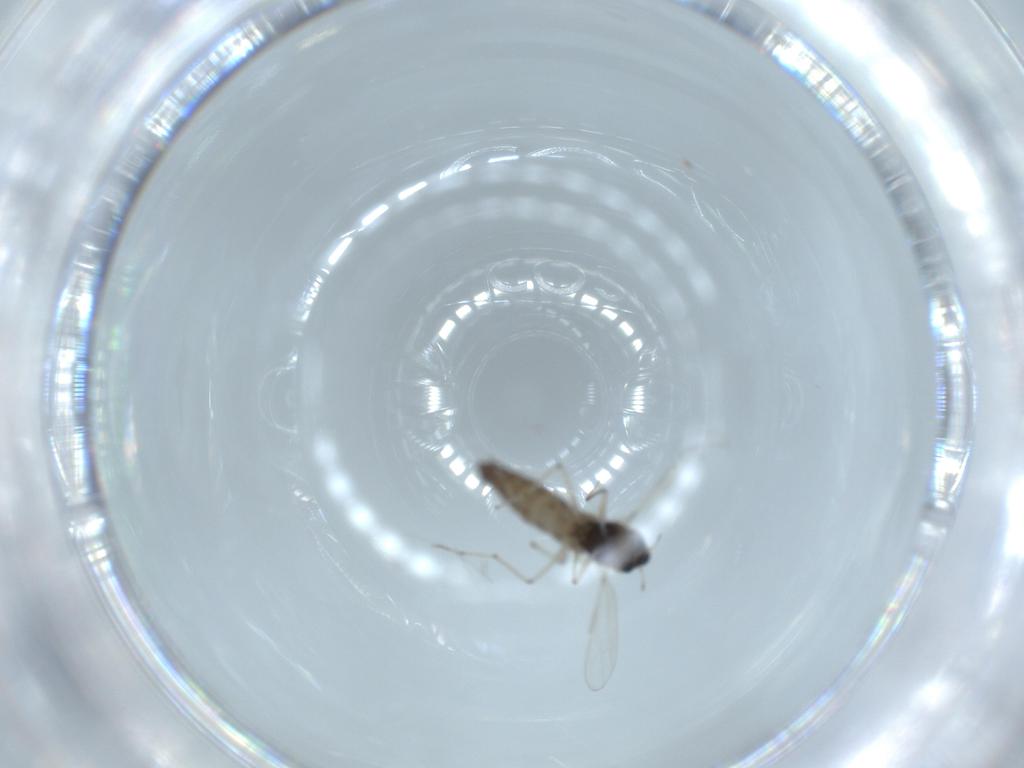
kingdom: Animalia
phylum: Arthropoda
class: Insecta
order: Diptera
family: Chironomidae
